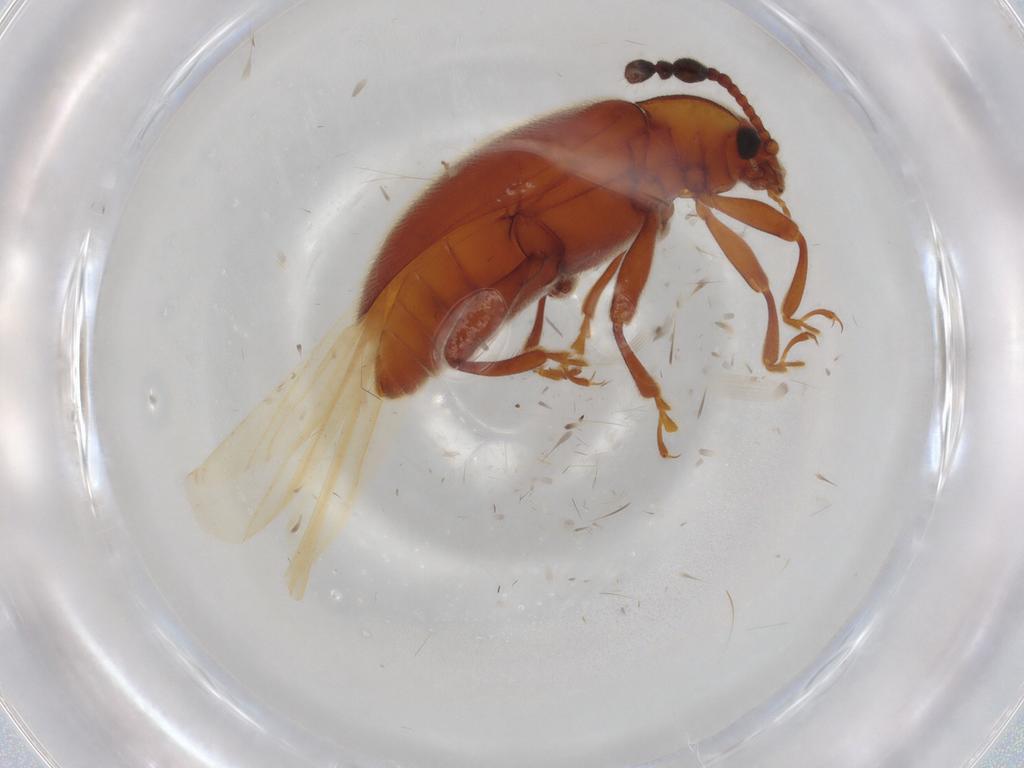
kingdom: Animalia
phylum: Arthropoda
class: Insecta
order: Coleoptera
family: Endomychidae
